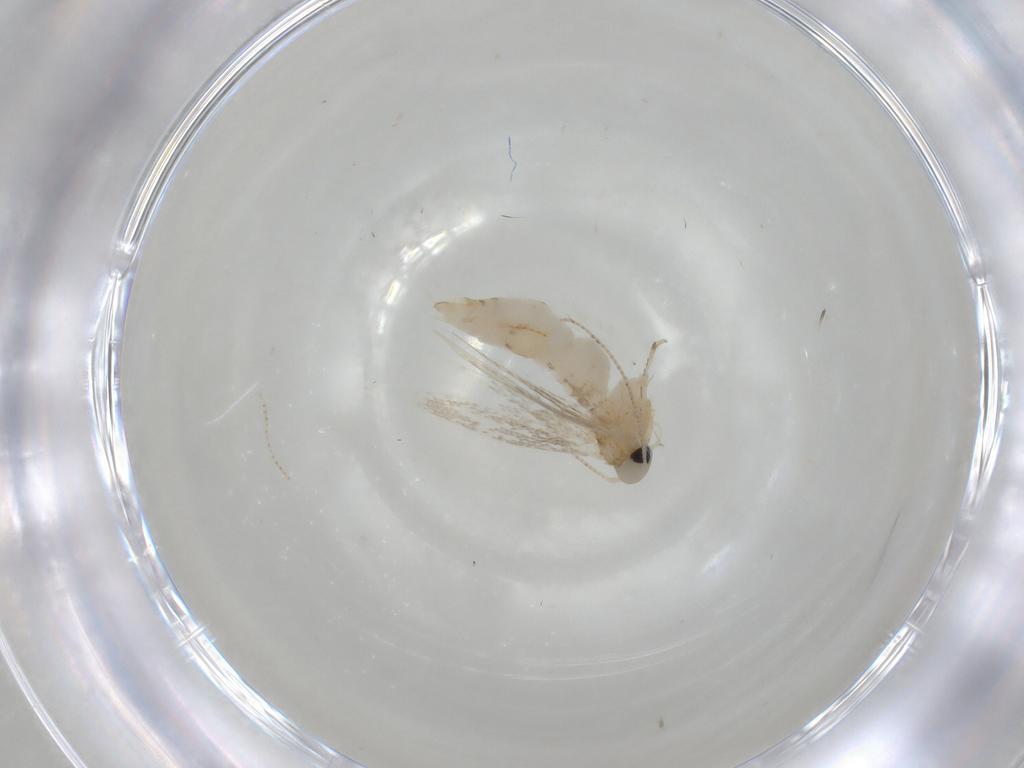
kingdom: Animalia
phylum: Arthropoda
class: Insecta
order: Lepidoptera
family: Gracillariidae
